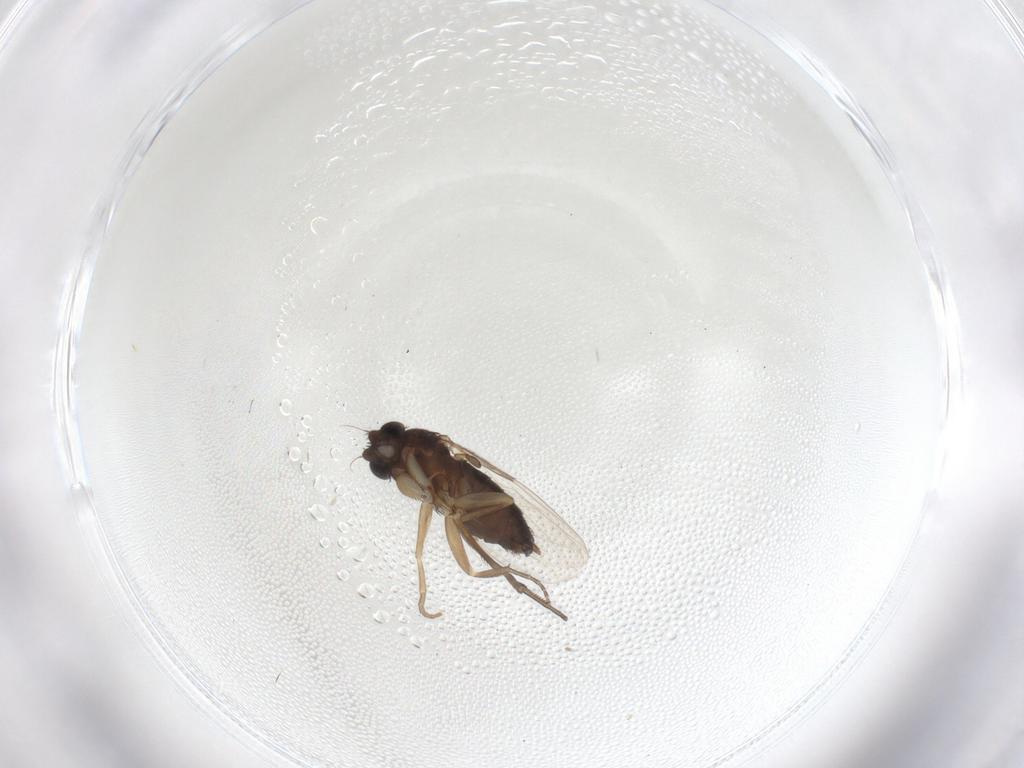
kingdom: Animalia
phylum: Arthropoda
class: Insecta
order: Diptera
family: Phoridae
